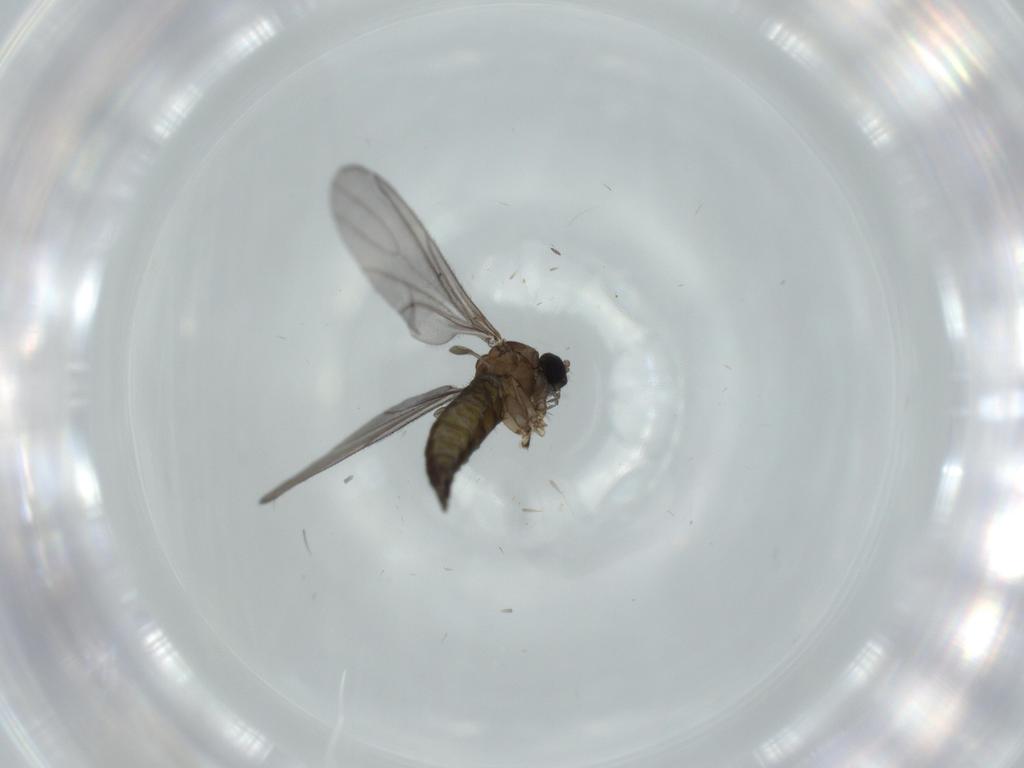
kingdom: Animalia
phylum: Arthropoda
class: Insecta
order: Diptera
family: Sciaridae
